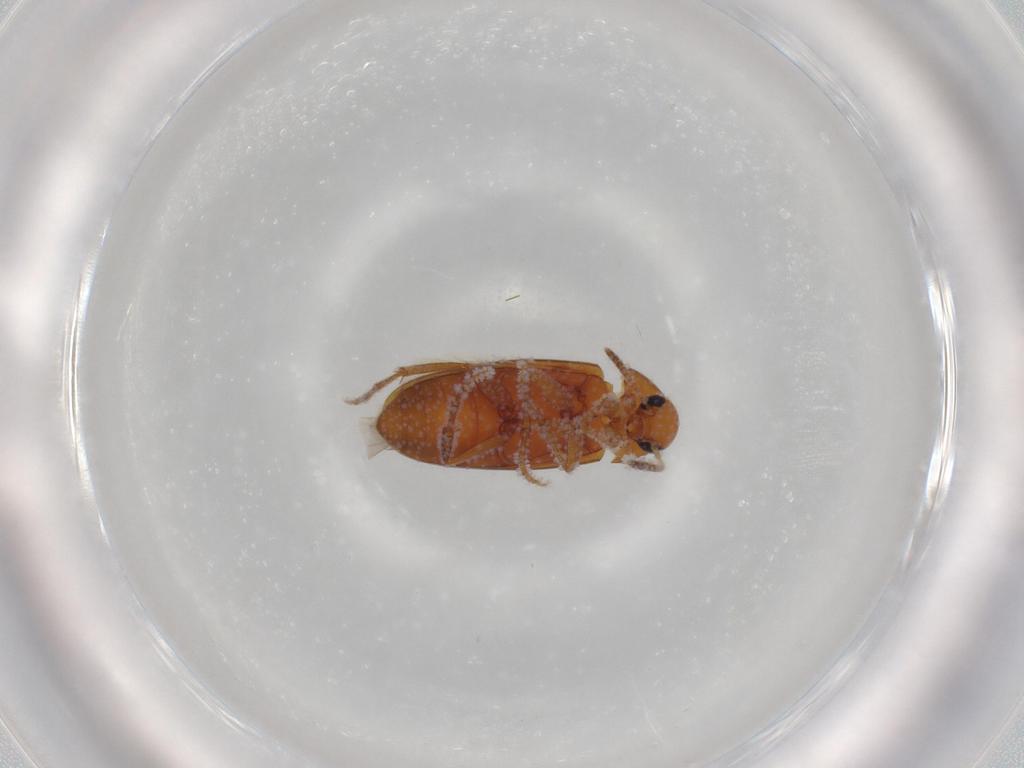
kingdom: Animalia
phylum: Arthropoda
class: Insecta
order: Coleoptera
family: Scraptiidae
